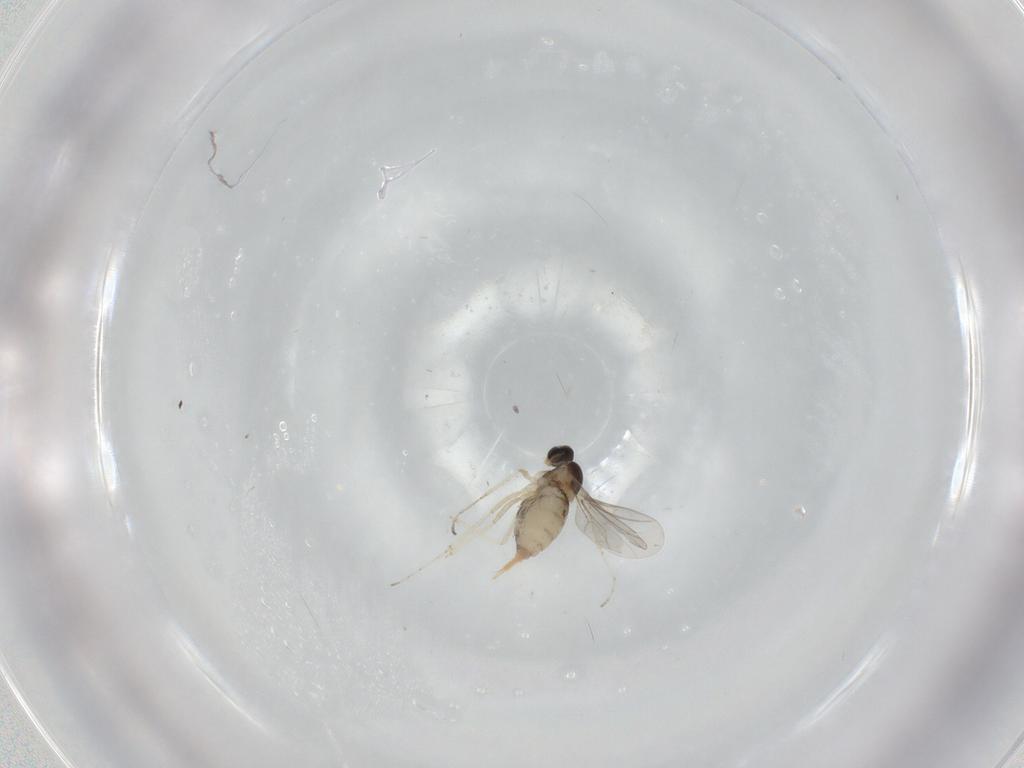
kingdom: Animalia
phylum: Arthropoda
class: Insecta
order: Diptera
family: Cecidomyiidae
